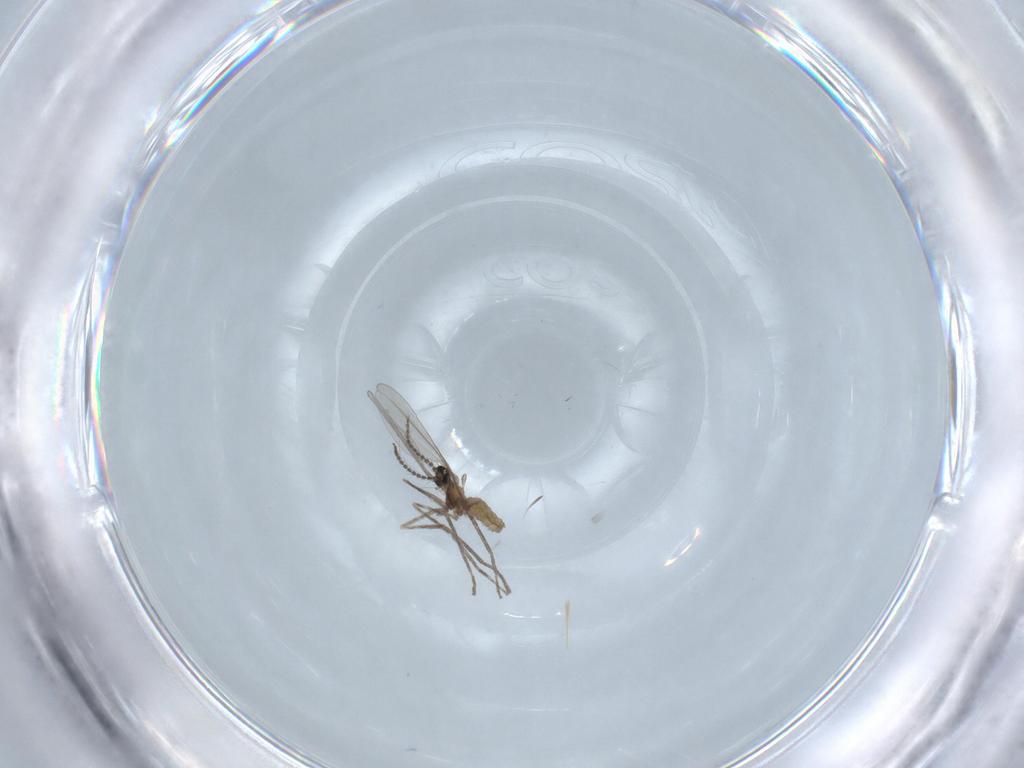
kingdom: Animalia
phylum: Arthropoda
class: Insecta
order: Diptera
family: Cecidomyiidae
